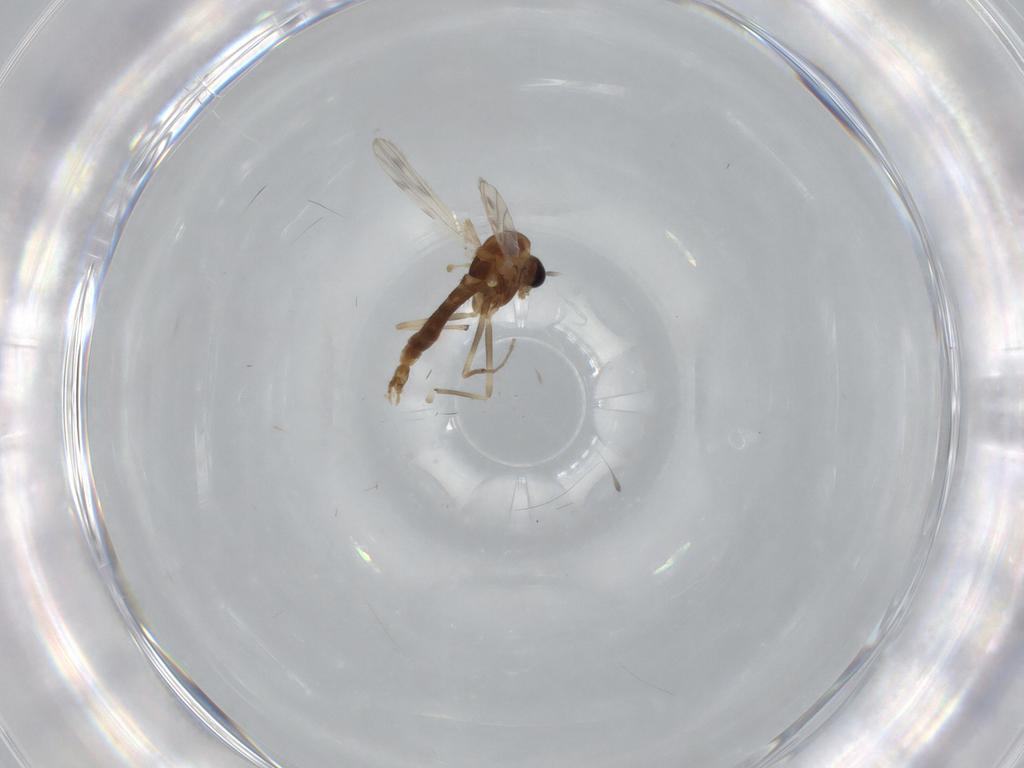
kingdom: Animalia
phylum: Arthropoda
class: Insecta
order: Diptera
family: Chironomidae
